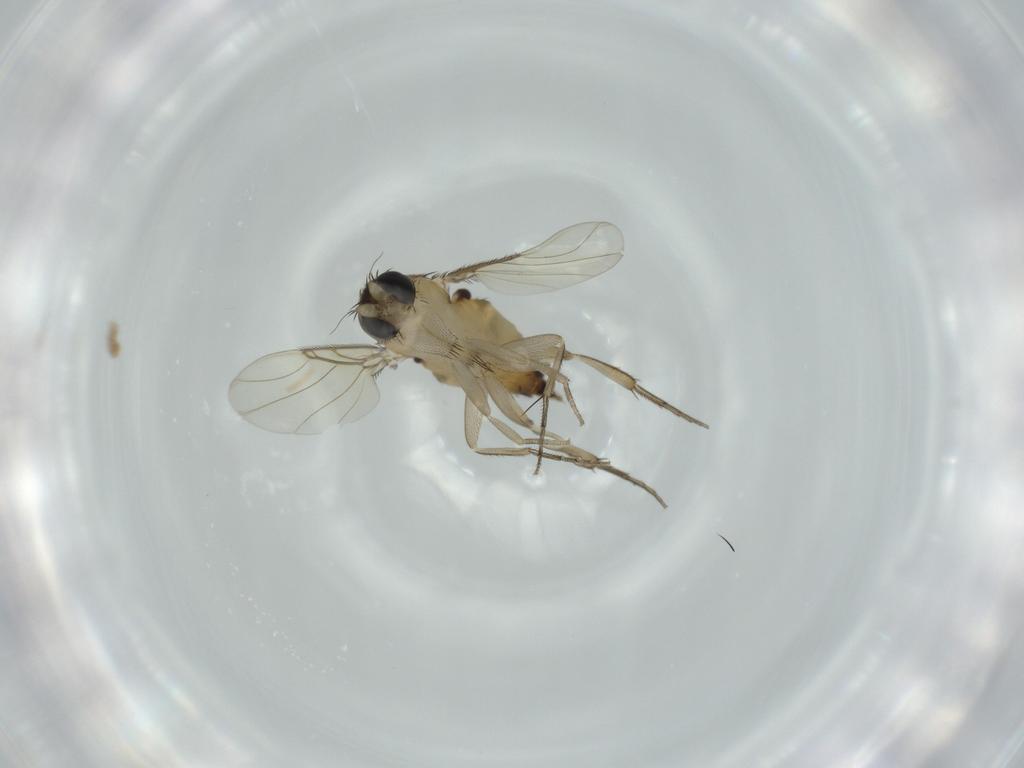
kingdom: Animalia
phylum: Arthropoda
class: Insecta
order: Diptera
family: Phoridae
